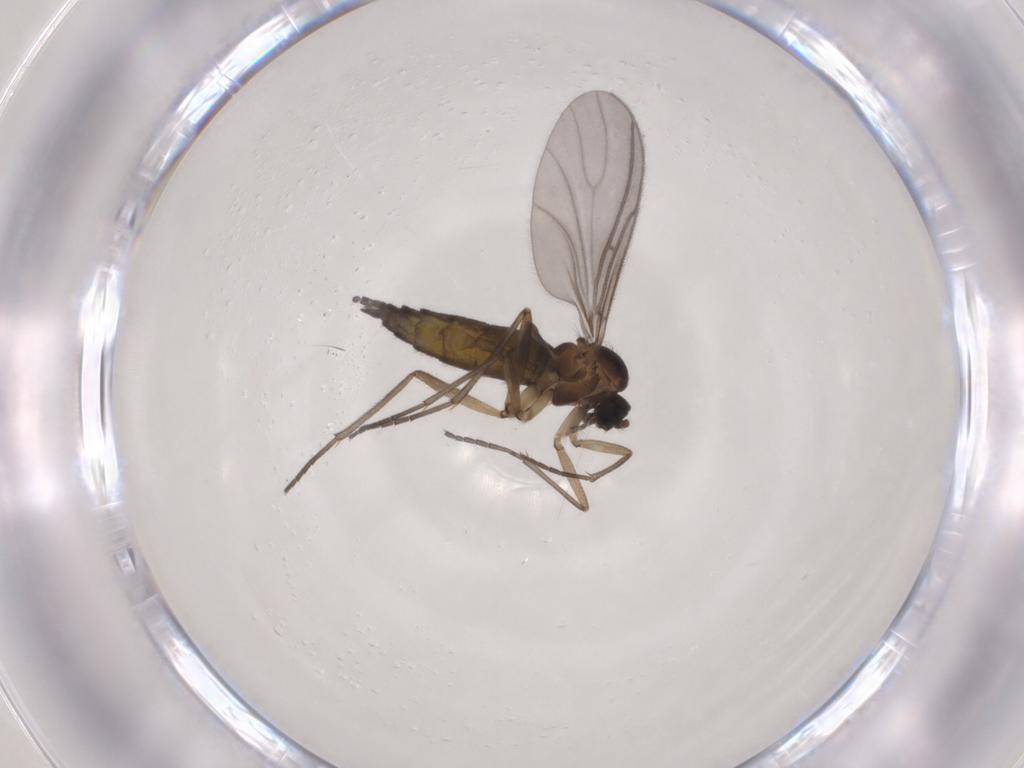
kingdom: Animalia
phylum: Arthropoda
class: Insecta
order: Diptera
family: Sciaridae
